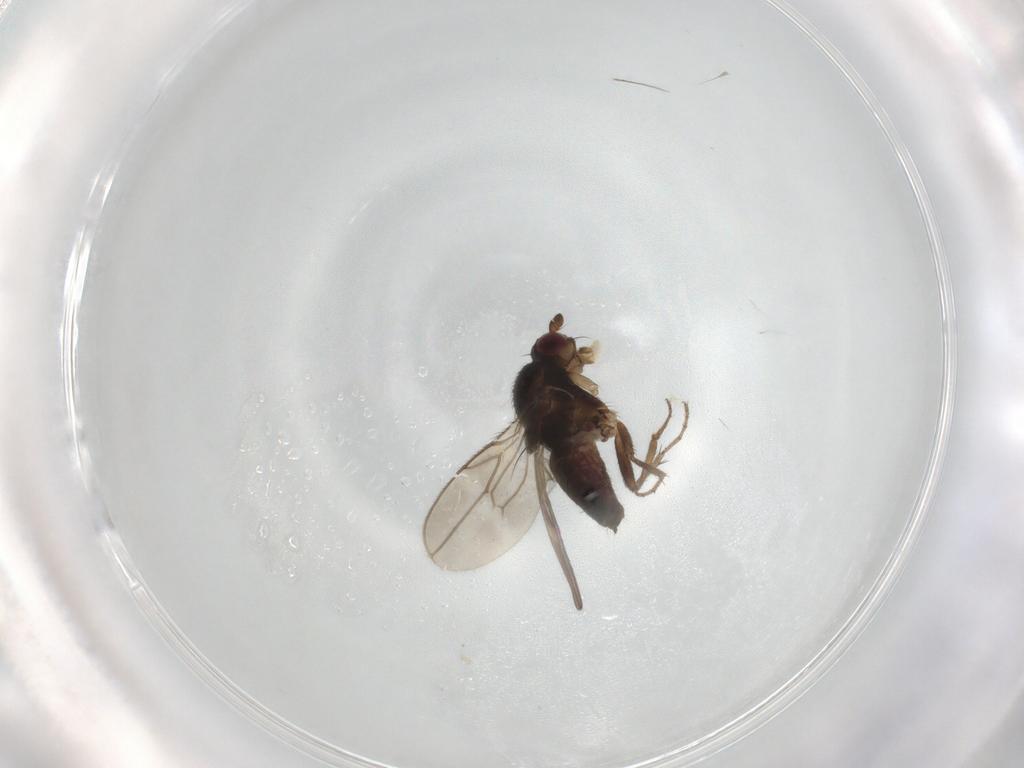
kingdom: Animalia
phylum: Arthropoda
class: Insecta
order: Diptera
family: Sphaeroceridae
